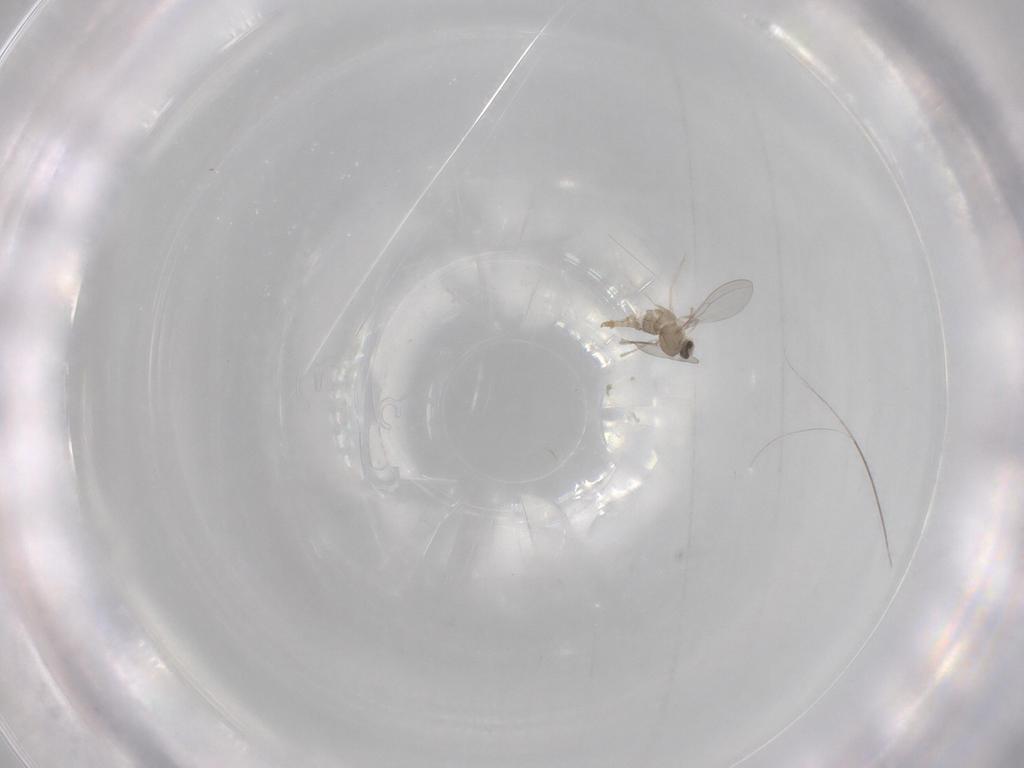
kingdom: Animalia
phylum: Arthropoda
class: Insecta
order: Diptera
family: Cecidomyiidae
